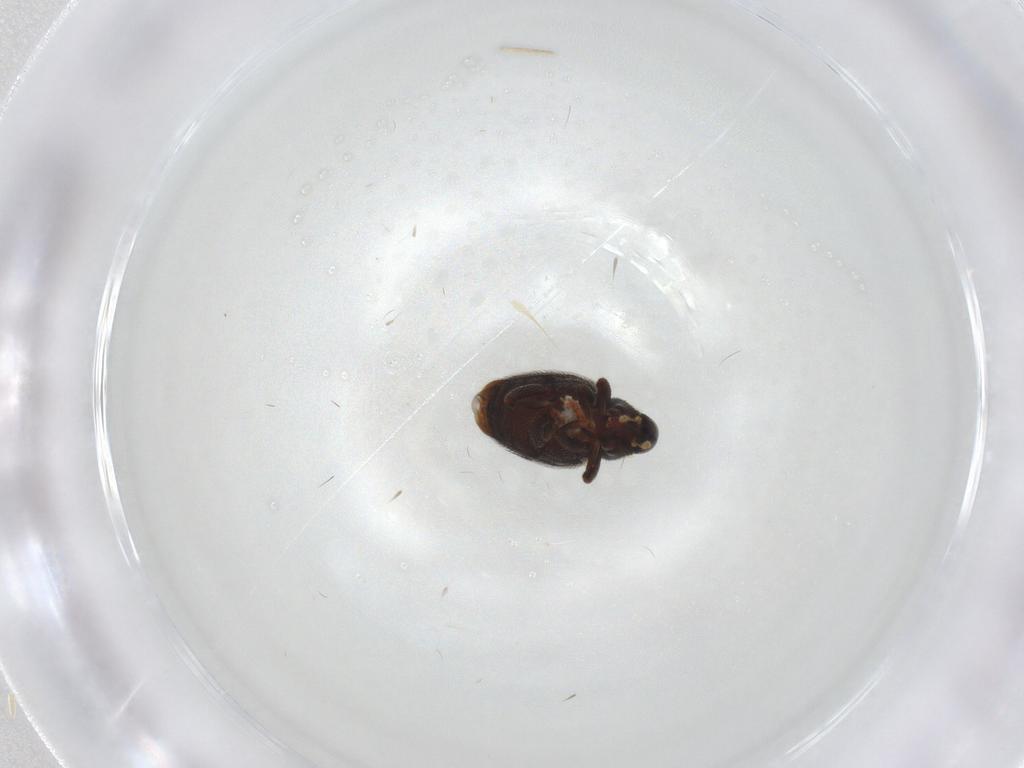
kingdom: Animalia
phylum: Arthropoda
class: Insecta
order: Coleoptera
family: Curculionidae
